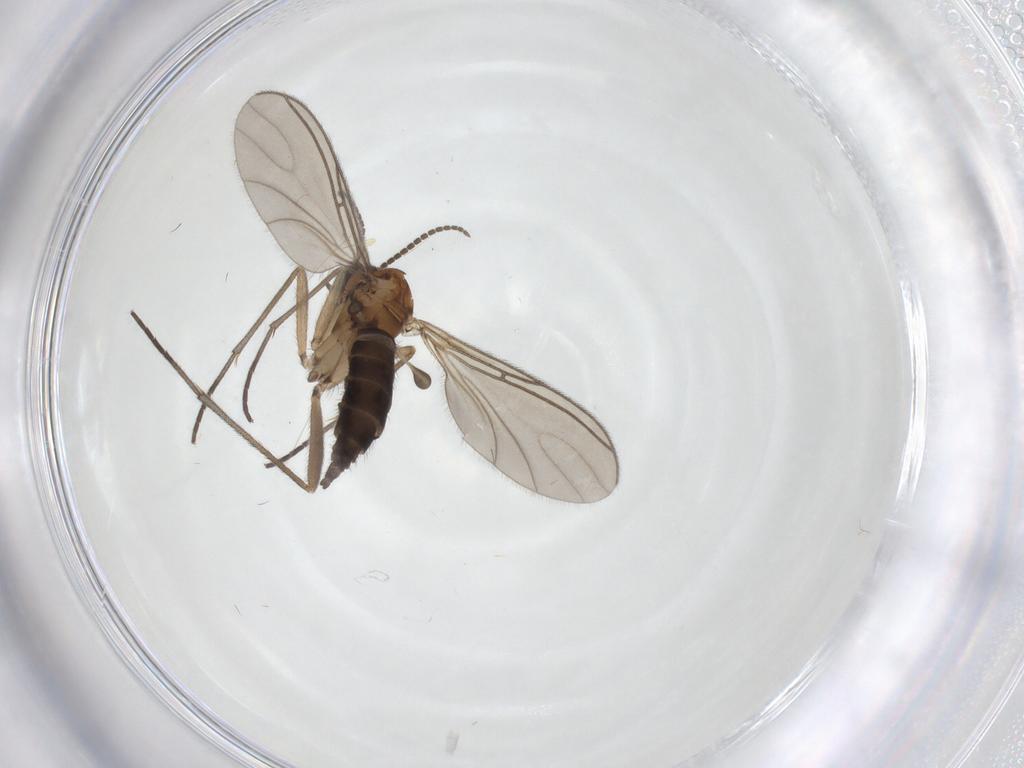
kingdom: Animalia
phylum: Arthropoda
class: Insecta
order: Diptera
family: Sciaridae
